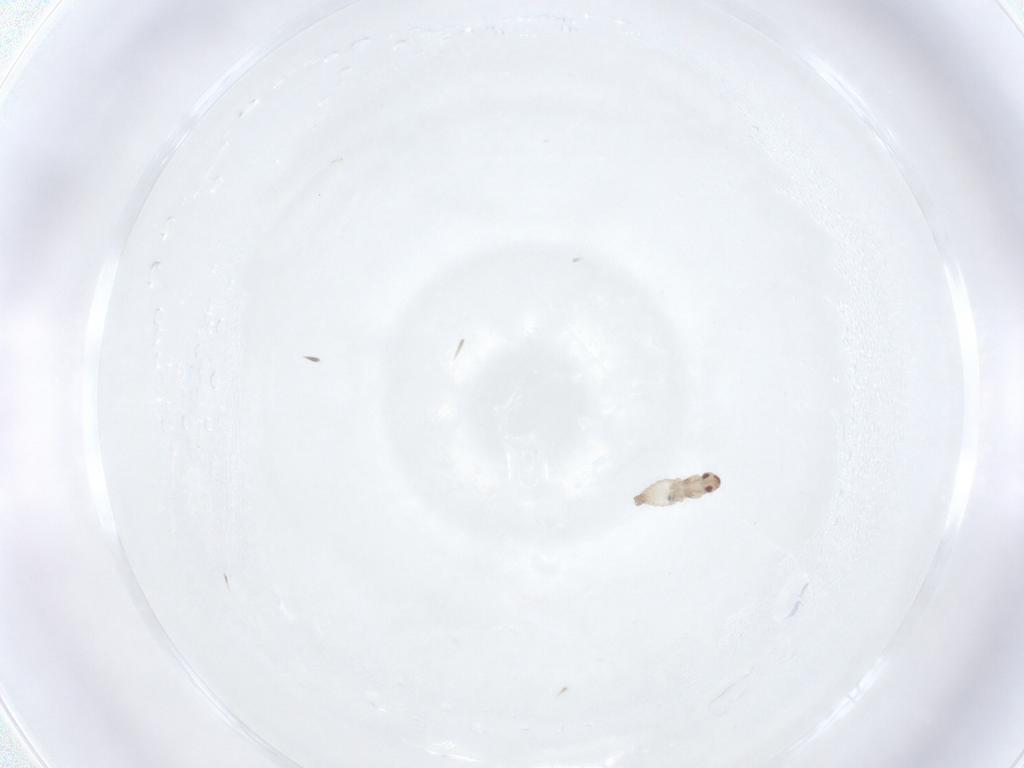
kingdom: Animalia
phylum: Arthropoda
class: Insecta
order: Diptera
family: Cecidomyiidae
